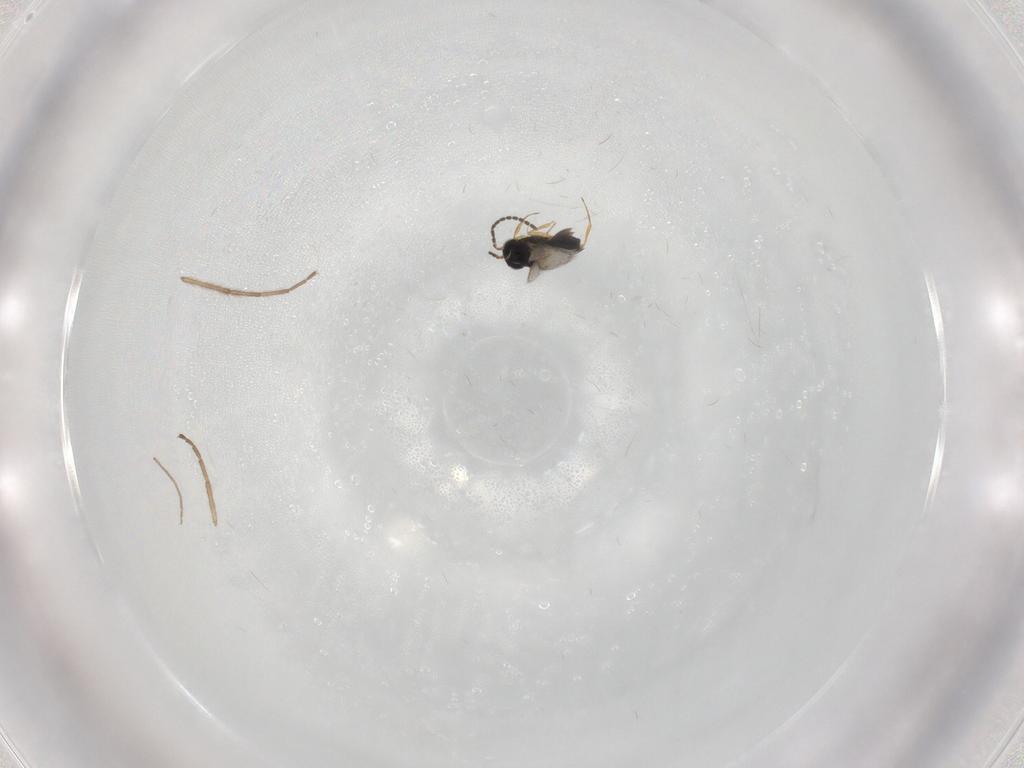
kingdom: Animalia
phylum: Arthropoda
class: Insecta
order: Hymenoptera
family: Scelionidae
